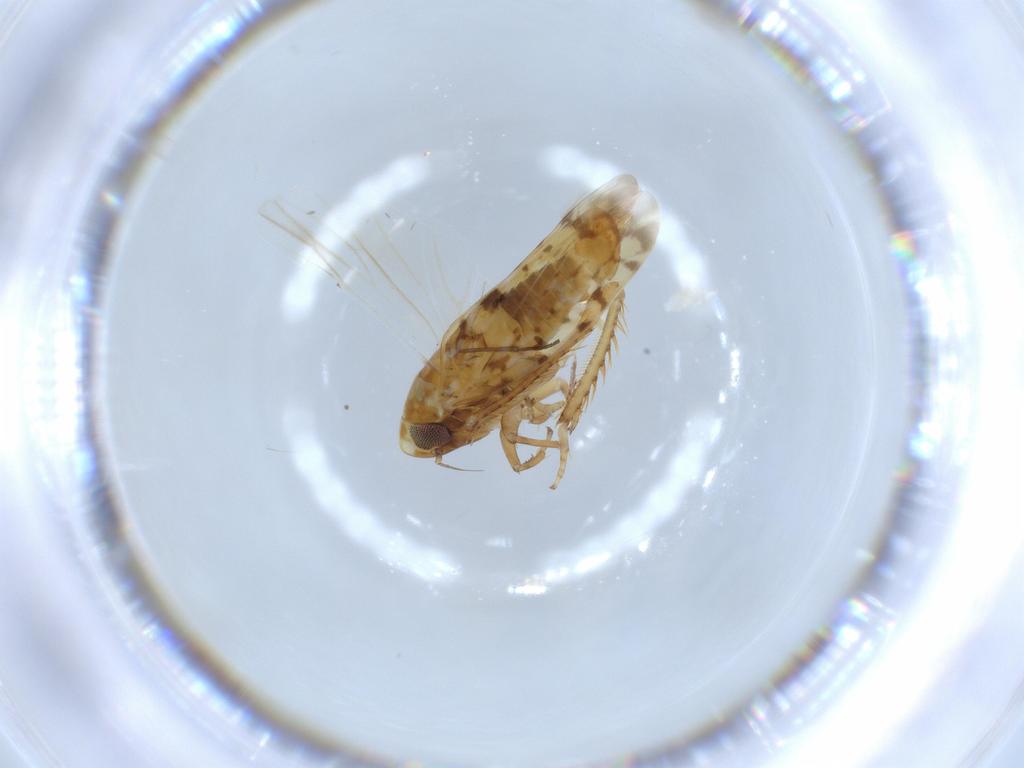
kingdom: Animalia
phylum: Arthropoda
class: Insecta
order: Hemiptera
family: Cicadellidae
